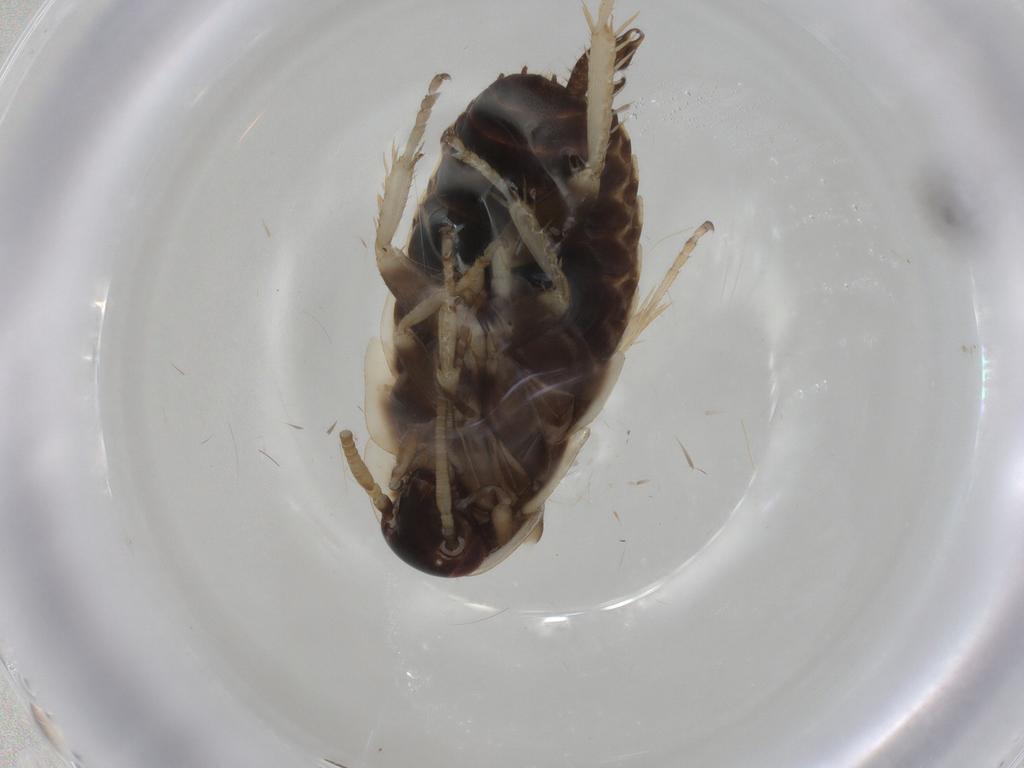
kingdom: Animalia
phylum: Arthropoda
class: Insecta
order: Blattodea
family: Ectobiidae
